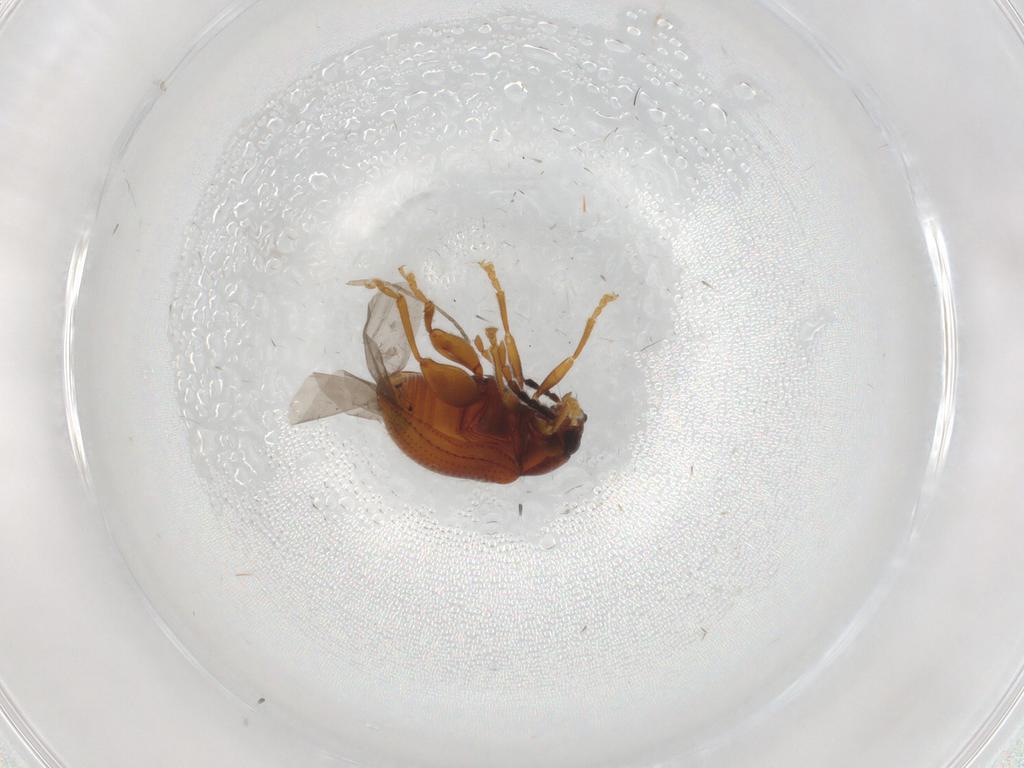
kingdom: Animalia
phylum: Arthropoda
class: Insecta
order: Coleoptera
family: Chrysomelidae
